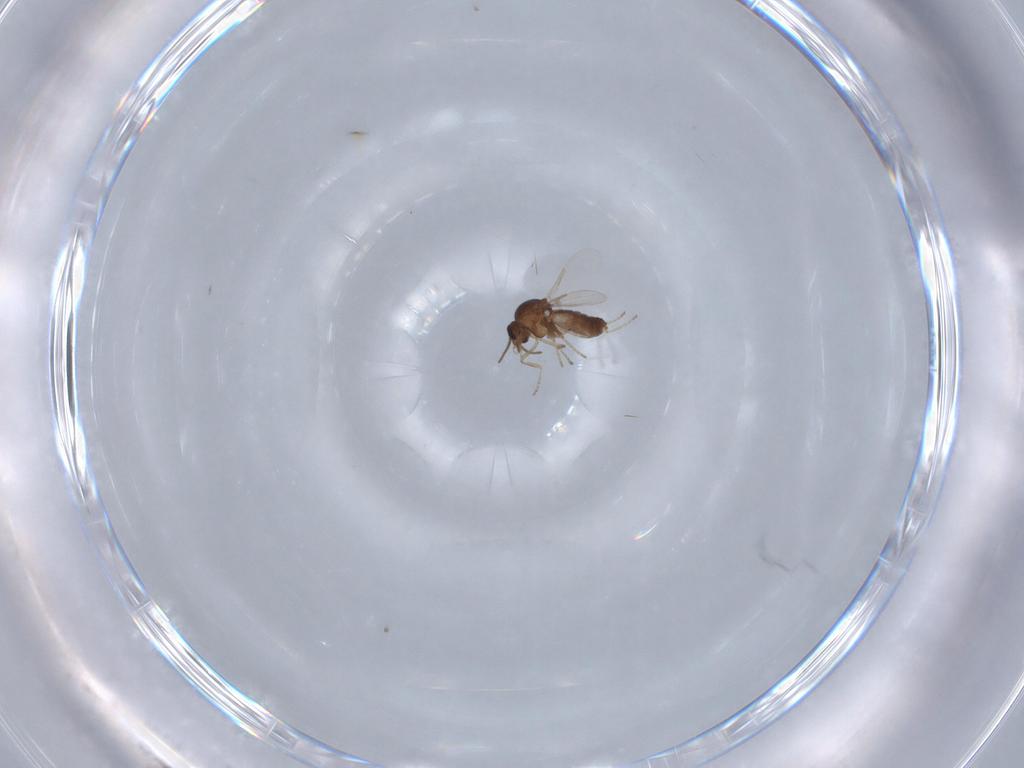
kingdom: Animalia
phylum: Arthropoda
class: Insecta
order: Diptera
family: Ceratopogonidae
